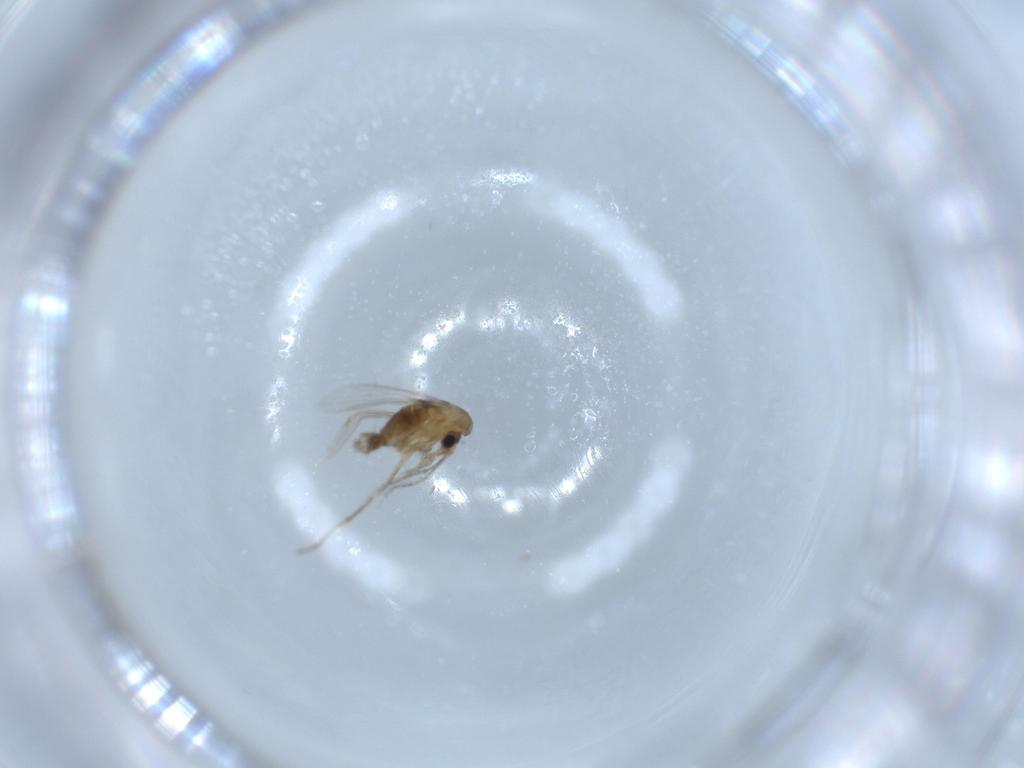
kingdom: Animalia
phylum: Arthropoda
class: Insecta
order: Diptera
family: Psychodidae
